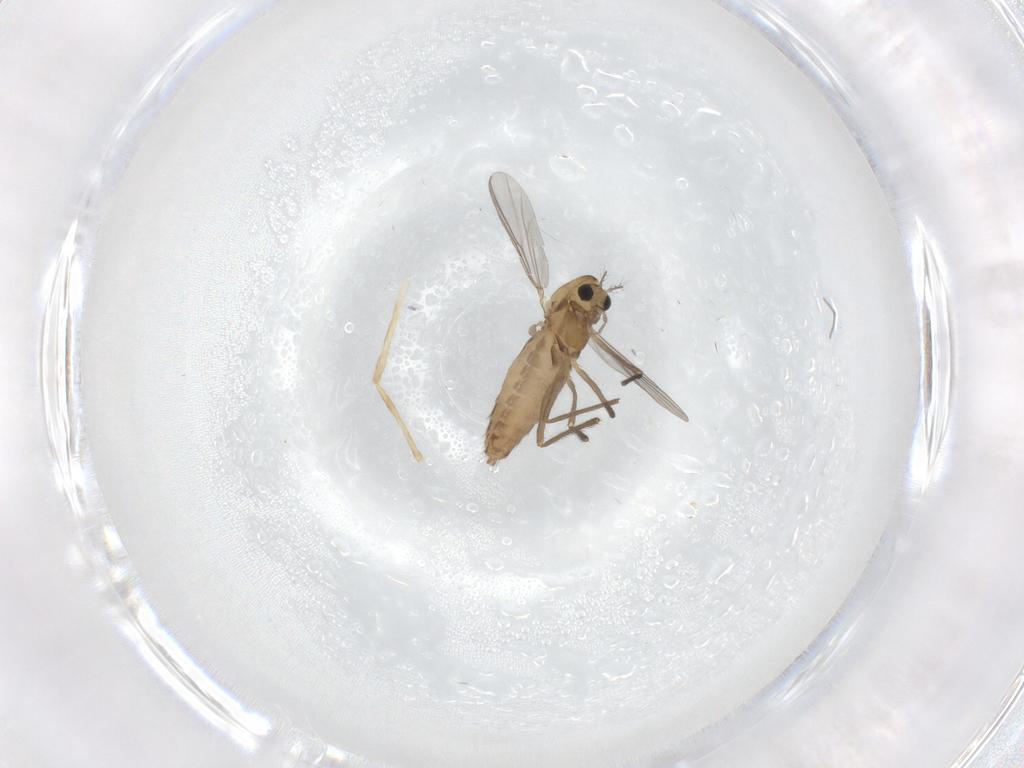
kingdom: Animalia
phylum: Arthropoda
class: Insecta
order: Diptera
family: Chironomidae
